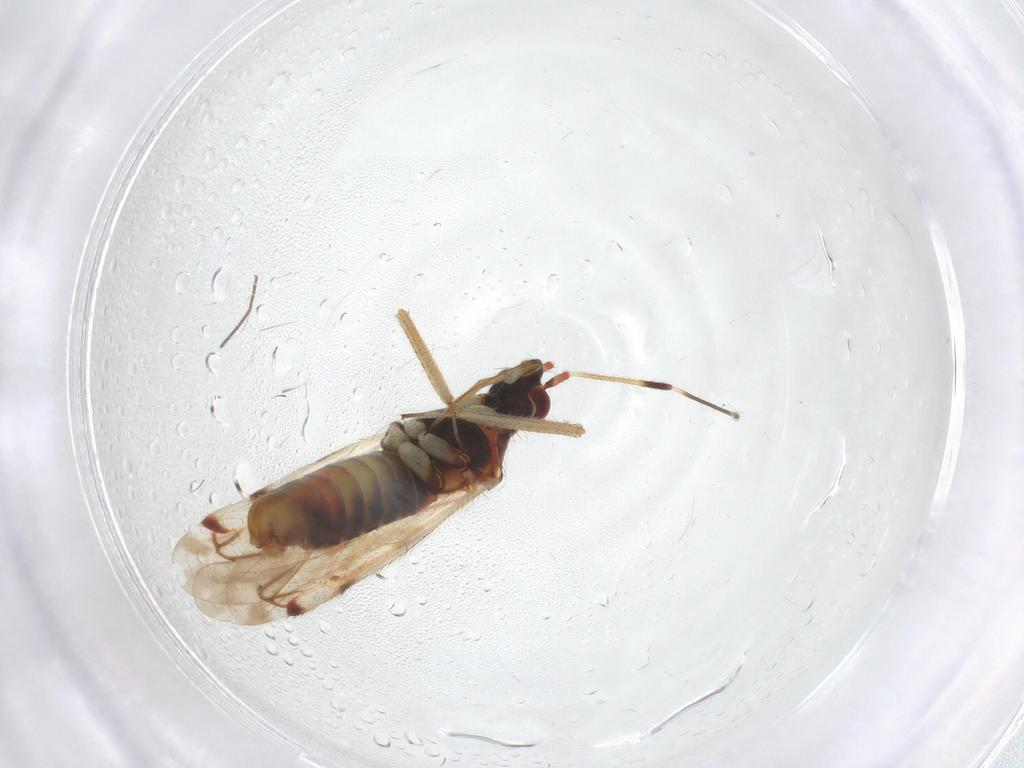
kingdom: Animalia
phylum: Arthropoda
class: Insecta
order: Hemiptera
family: Miridae
